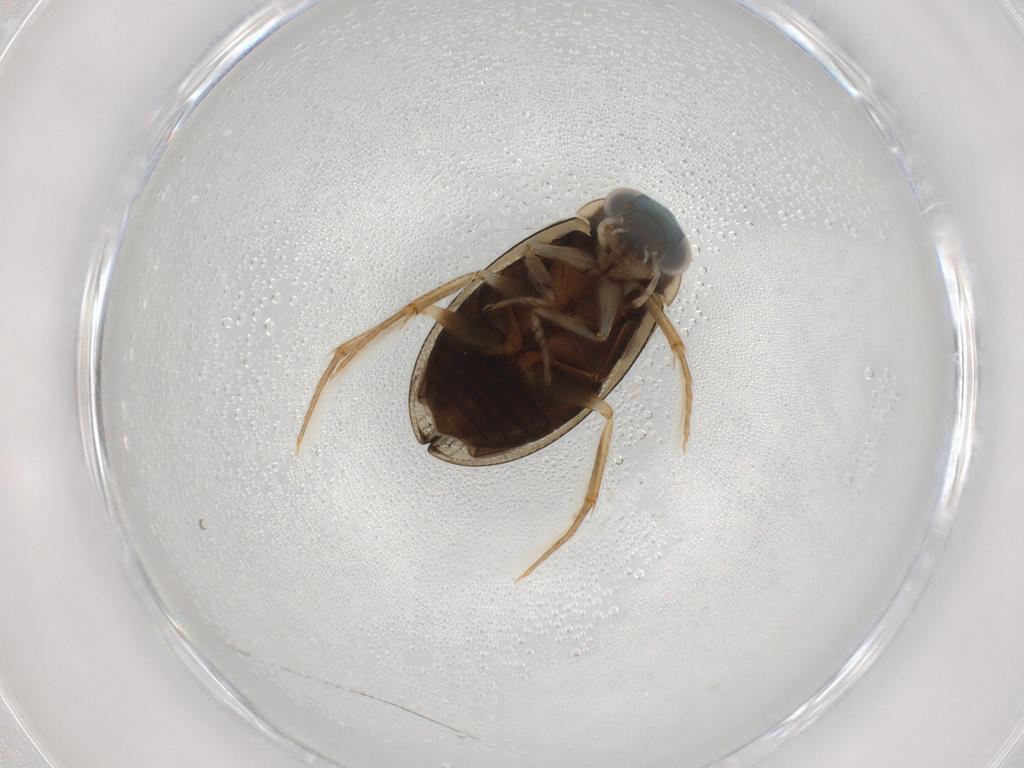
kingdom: Animalia
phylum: Arthropoda
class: Insecta
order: Coleoptera
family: Hydrophilidae
